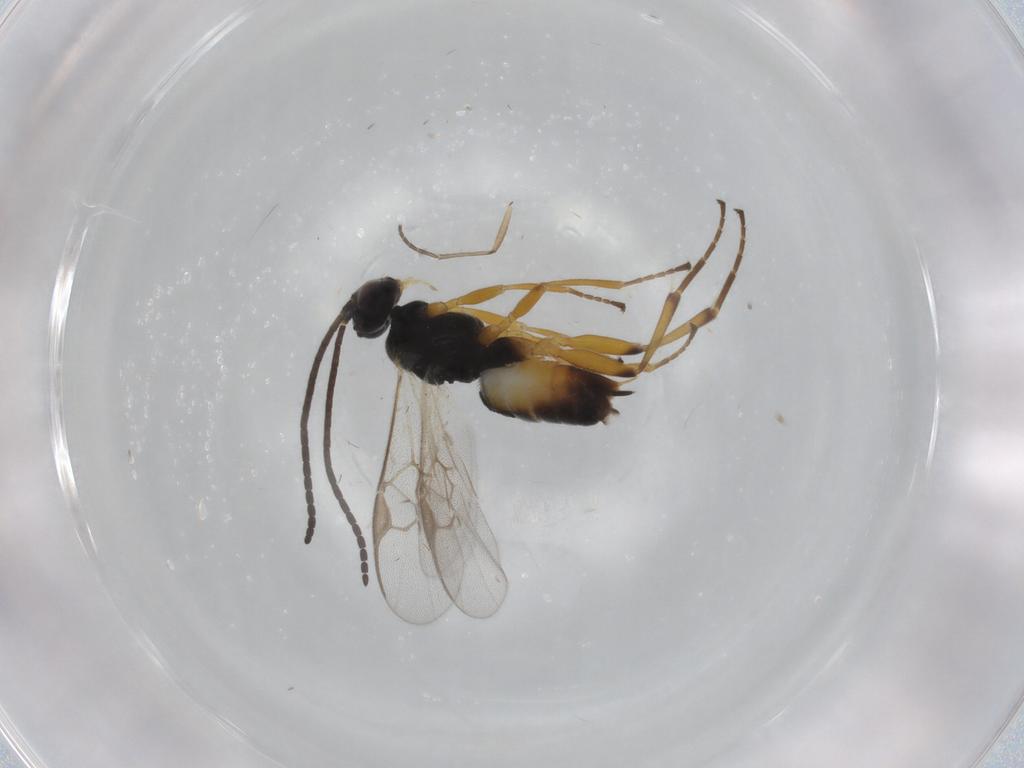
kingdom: Animalia
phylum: Arthropoda
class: Insecta
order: Hymenoptera
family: Braconidae
